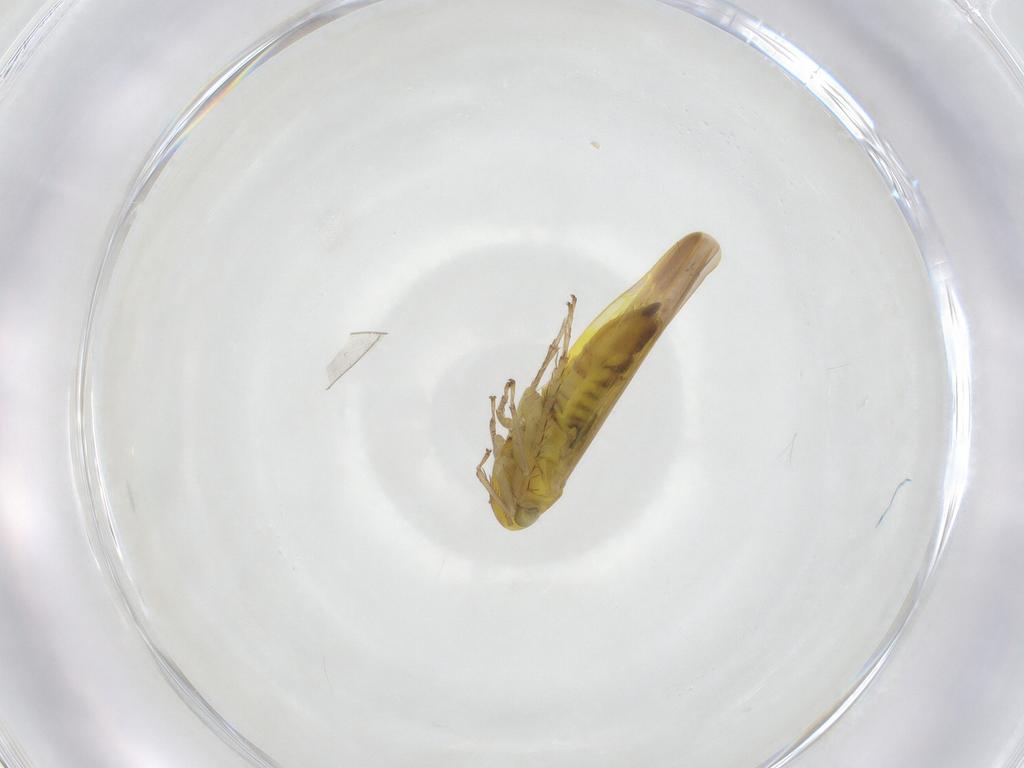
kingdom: Animalia
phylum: Arthropoda
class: Insecta
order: Hemiptera
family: Cicadellidae
